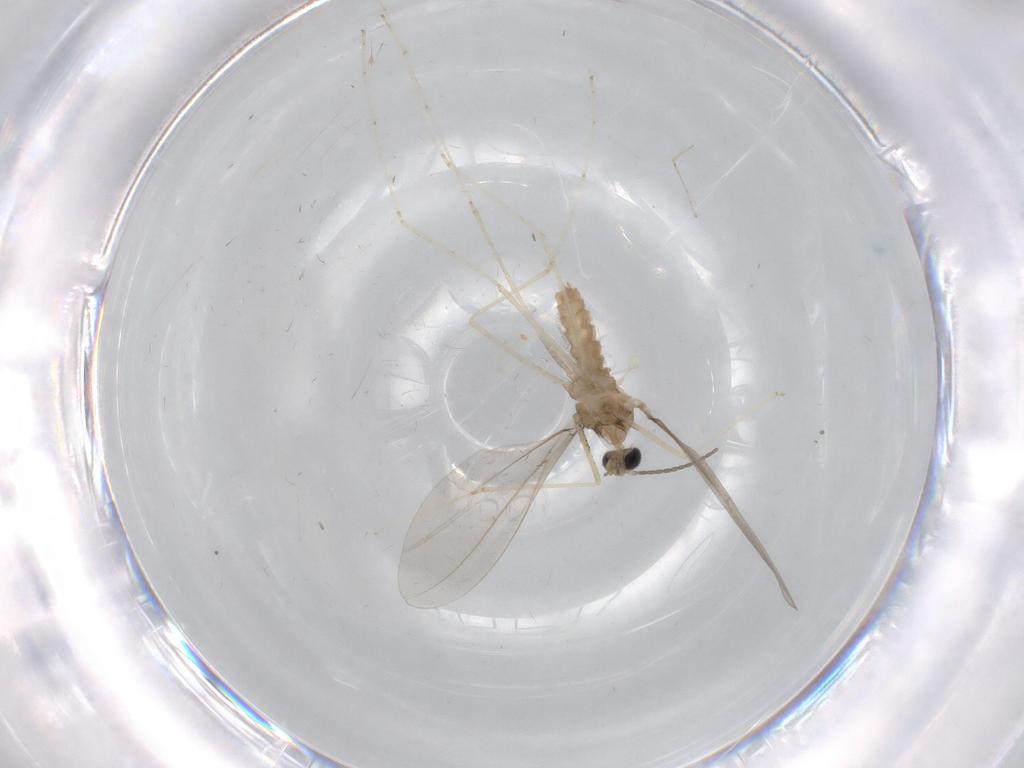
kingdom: Animalia
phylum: Arthropoda
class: Insecta
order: Diptera
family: Cecidomyiidae
